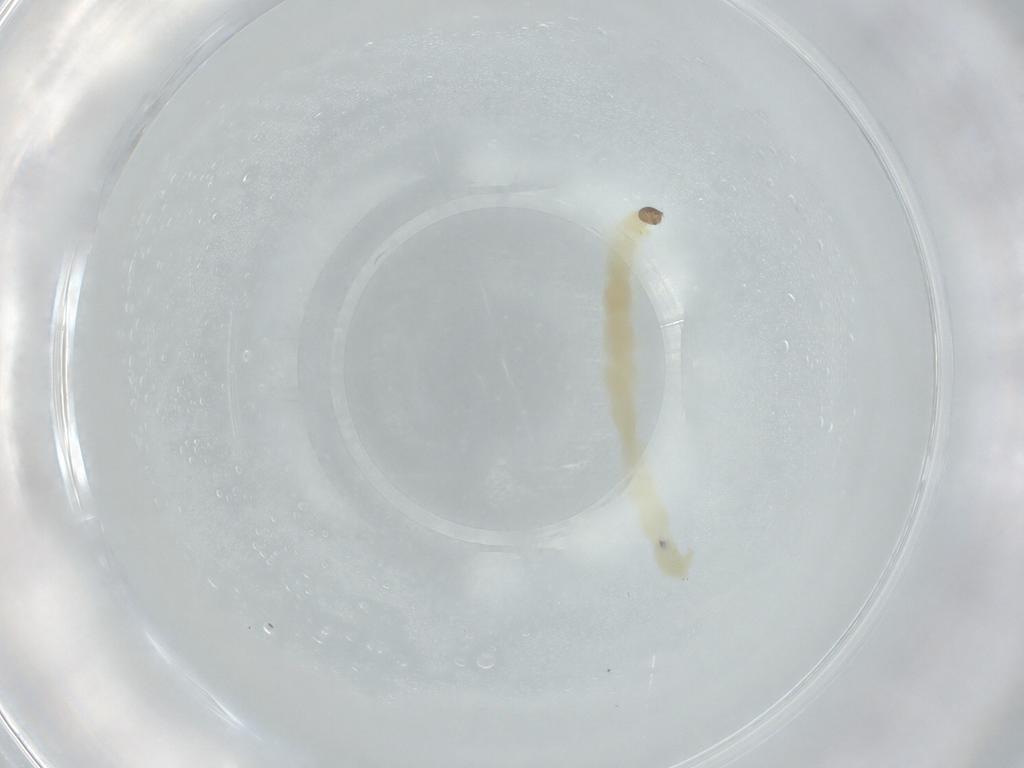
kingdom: Animalia
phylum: Arthropoda
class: Insecta
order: Diptera
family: Chironomidae
